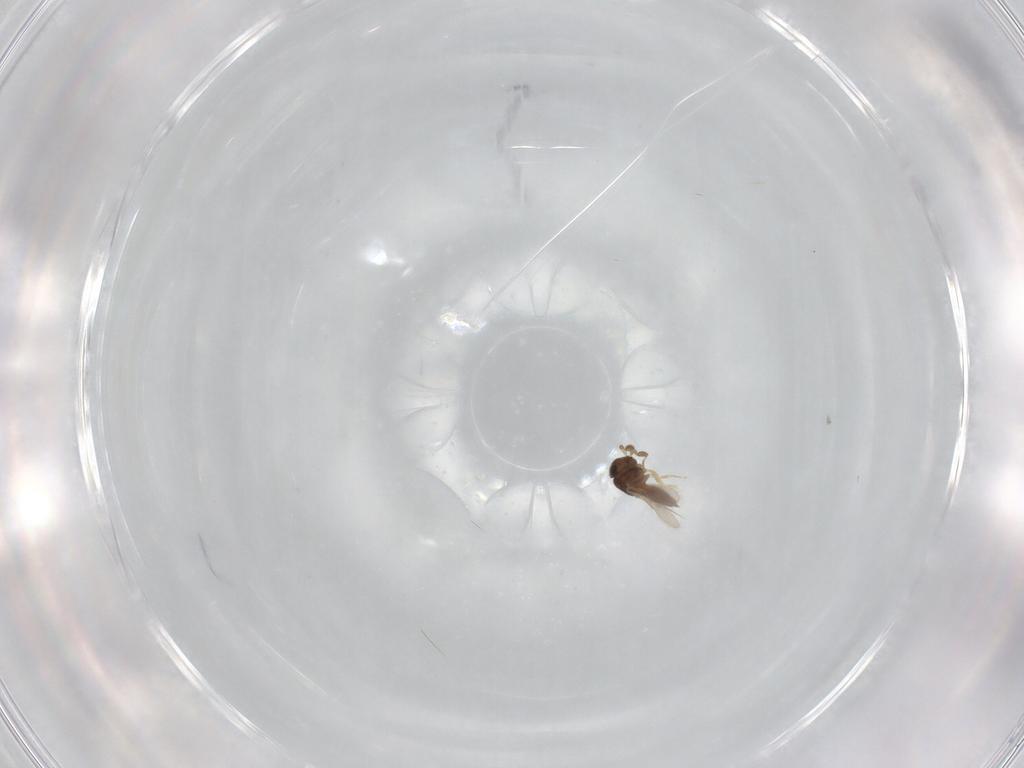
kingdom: Animalia
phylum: Arthropoda
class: Insecta
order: Hymenoptera
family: Scelionidae
